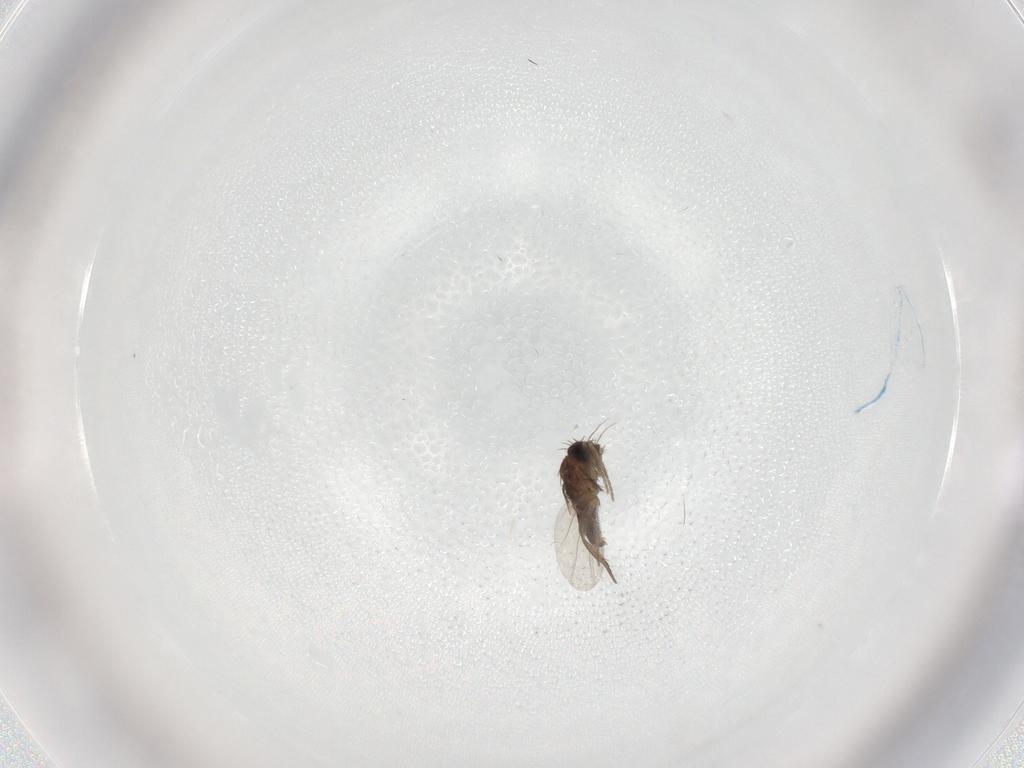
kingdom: Animalia
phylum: Arthropoda
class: Insecta
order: Diptera
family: Phoridae
